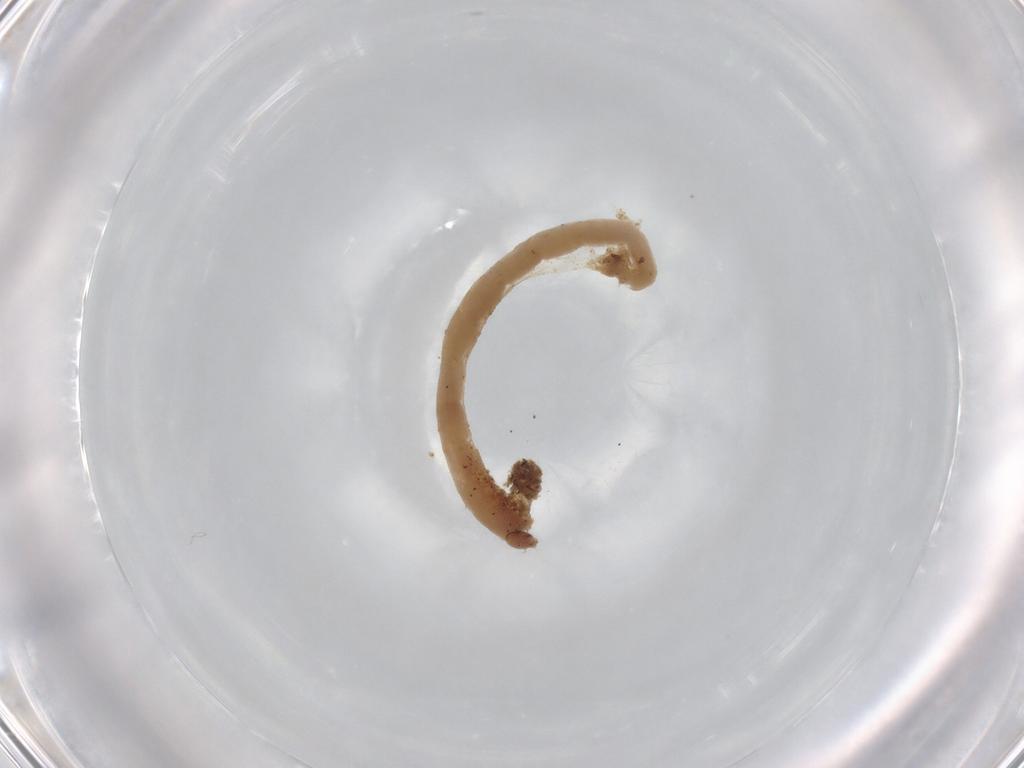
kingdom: Animalia
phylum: Arthropoda
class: Insecta
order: Diptera
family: Chironomidae
